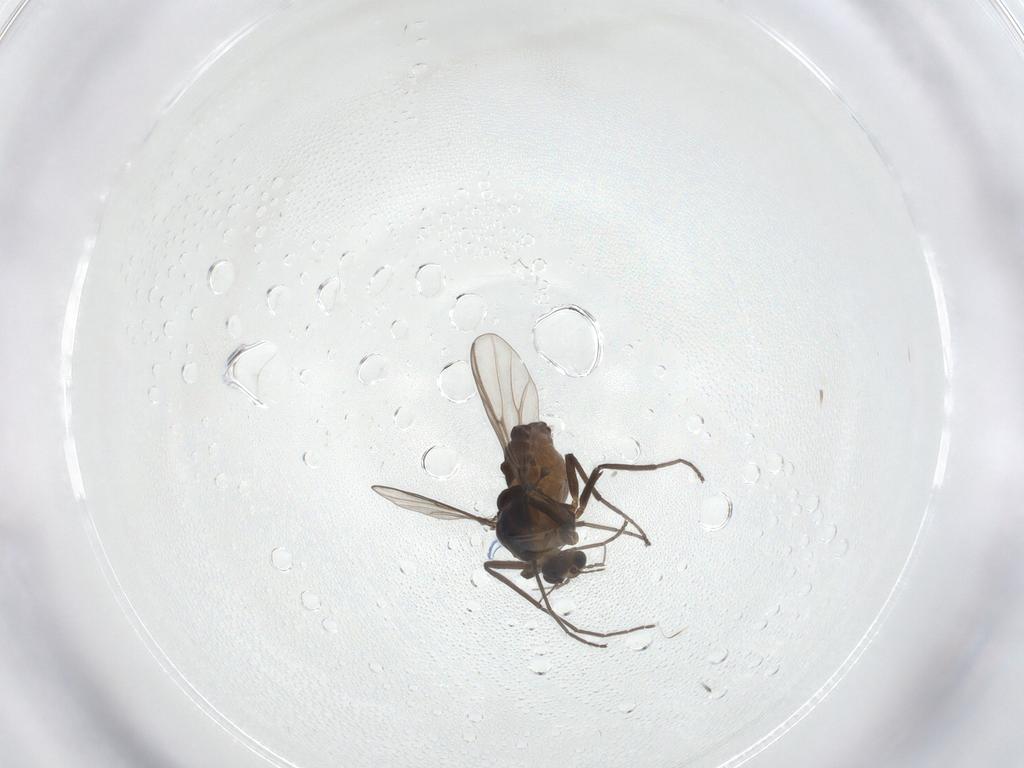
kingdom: Animalia
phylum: Arthropoda
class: Insecta
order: Diptera
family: Chironomidae
